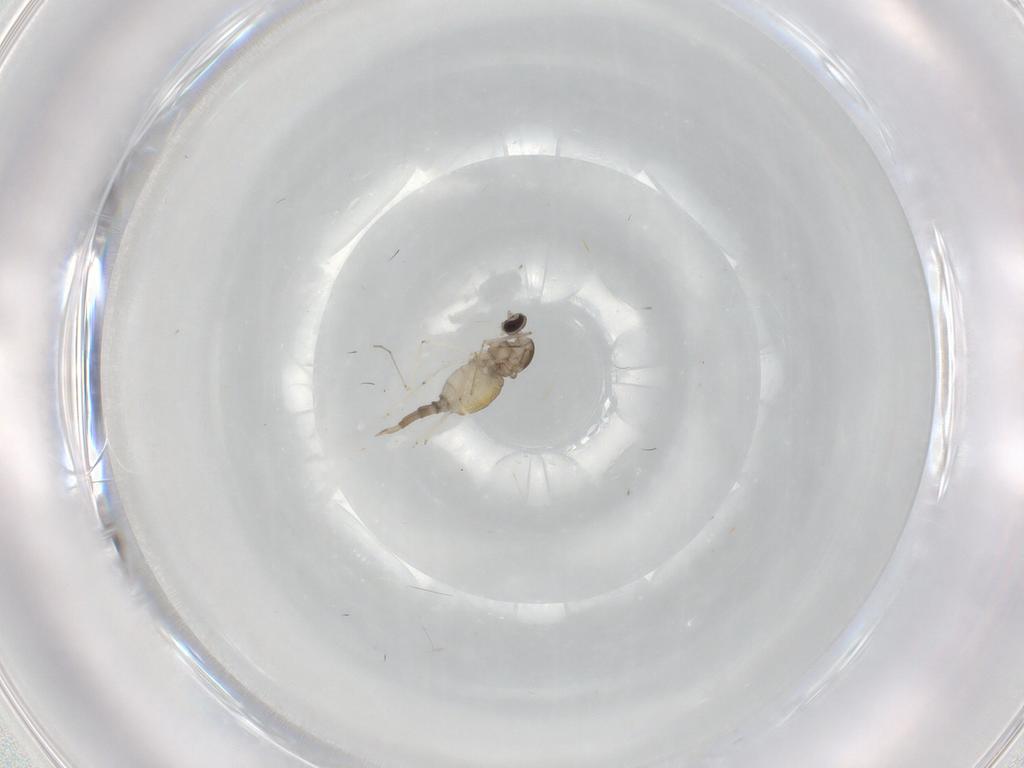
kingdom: Animalia
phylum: Arthropoda
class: Insecta
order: Diptera
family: Cecidomyiidae
